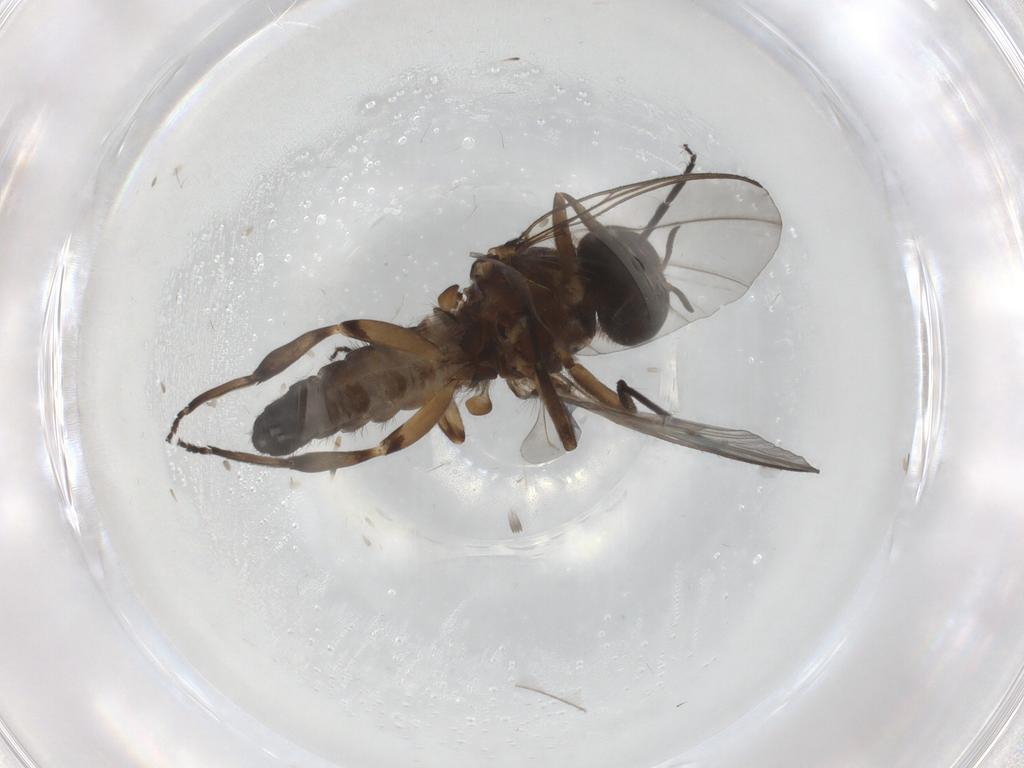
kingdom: Animalia
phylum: Arthropoda
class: Insecta
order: Diptera
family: Ceratopogonidae
